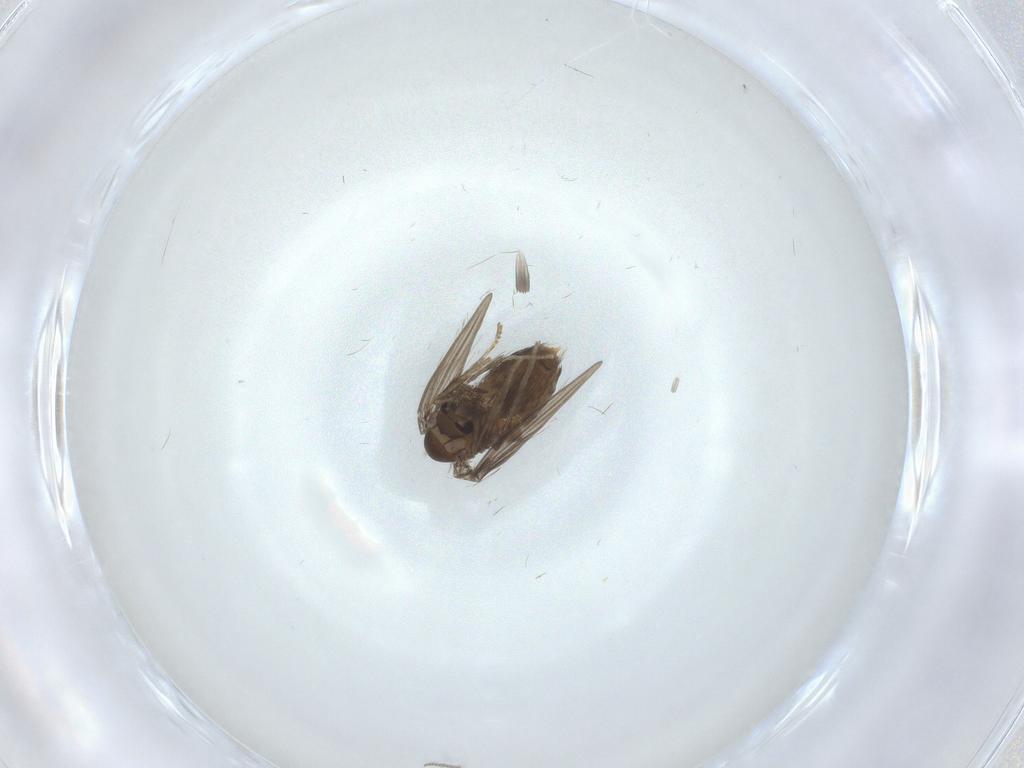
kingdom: Animalia
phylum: Arthropoda
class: Insecta
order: Diptera
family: Psychodidae
